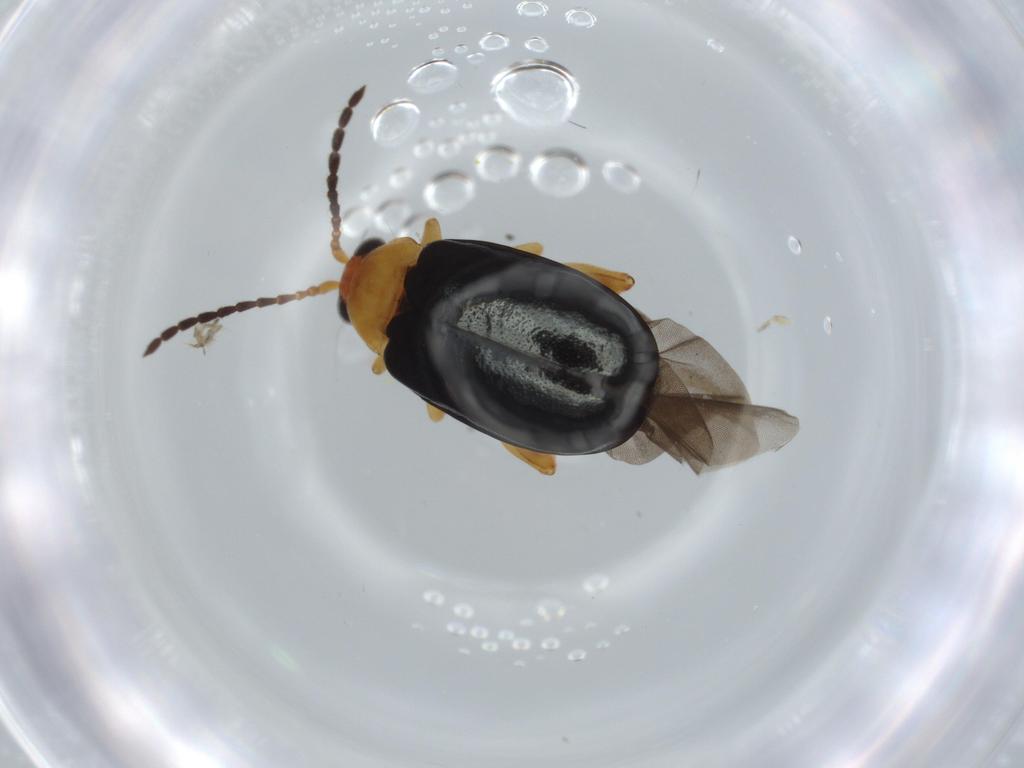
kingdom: Animalia
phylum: Arthropoda
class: Insecta
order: Coleoptera
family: Chrysomelidae
